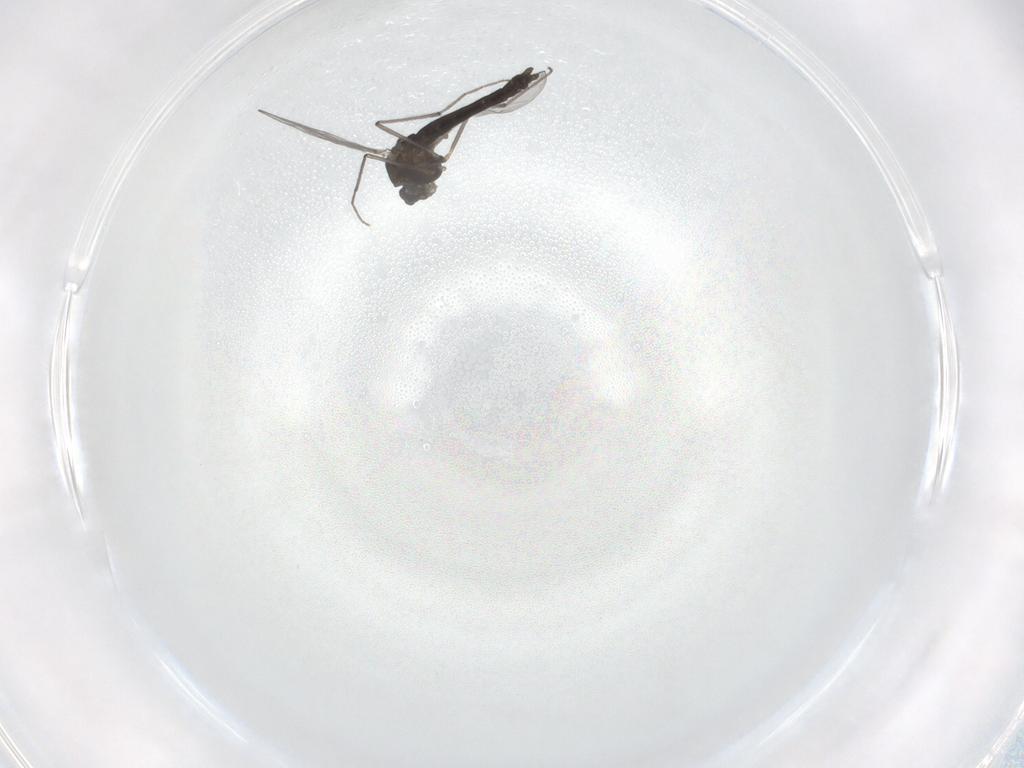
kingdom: Animalia
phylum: Arthropoda
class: Insecta
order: Diptera
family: Chironomidae
